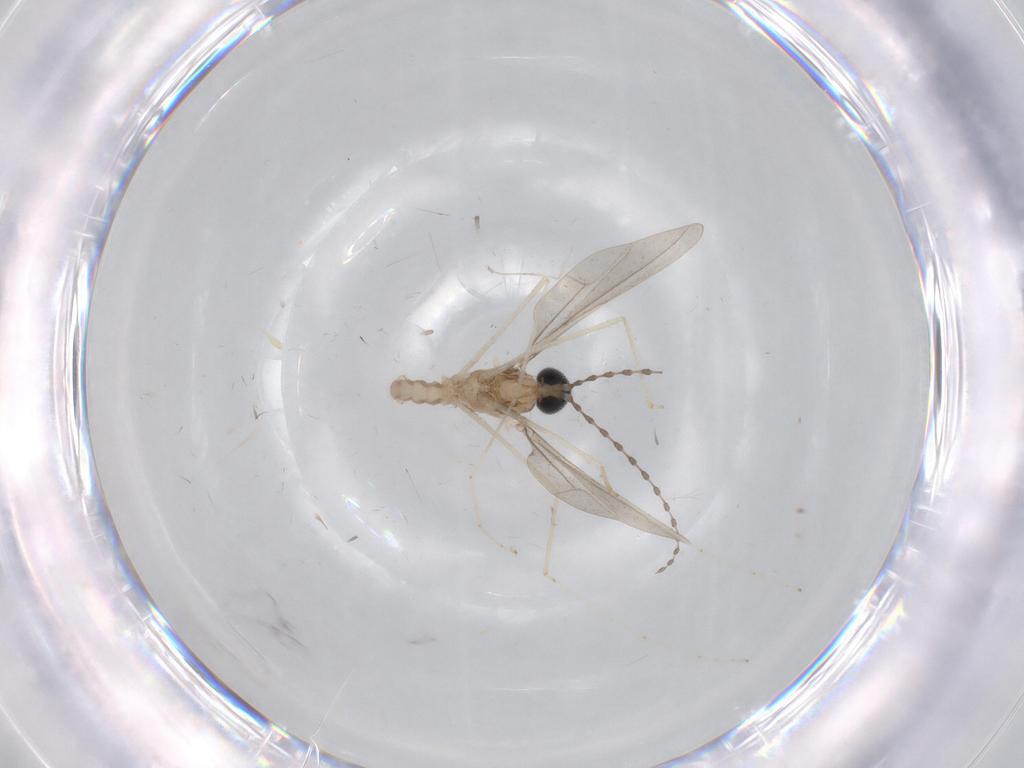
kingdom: Animalia
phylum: Arthropoda
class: Insecta
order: Diptera
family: Cecidomyiidae
